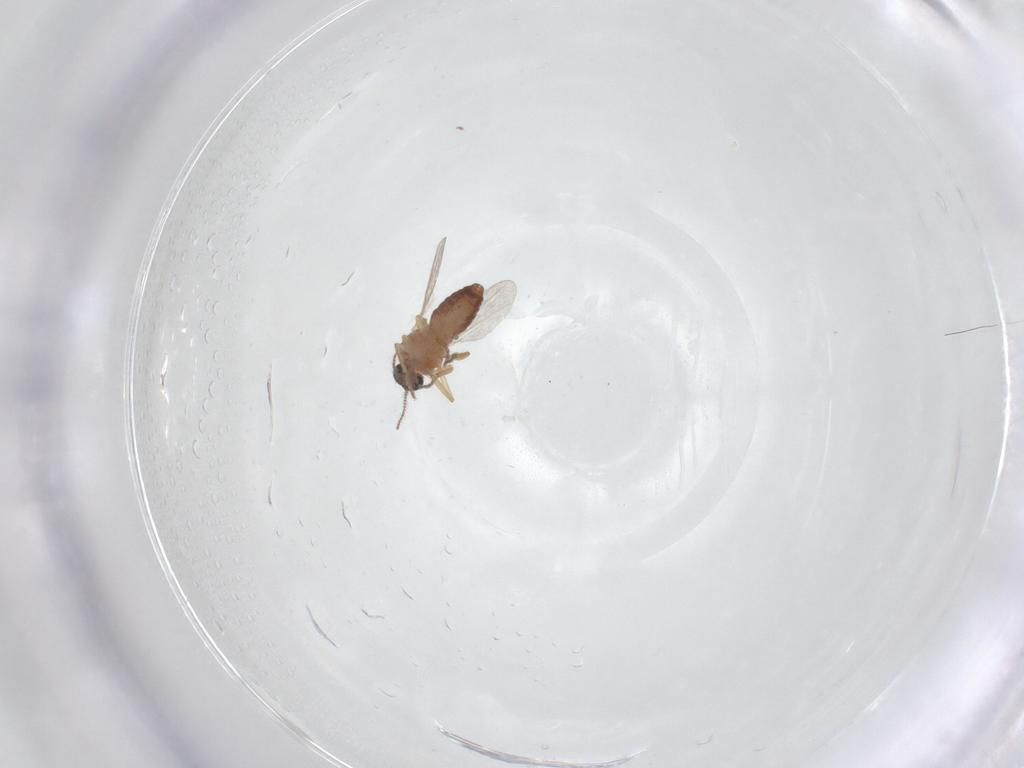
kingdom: Animalia
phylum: Arthropoda
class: Insecta
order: Diptera
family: Ceratopogonidae
